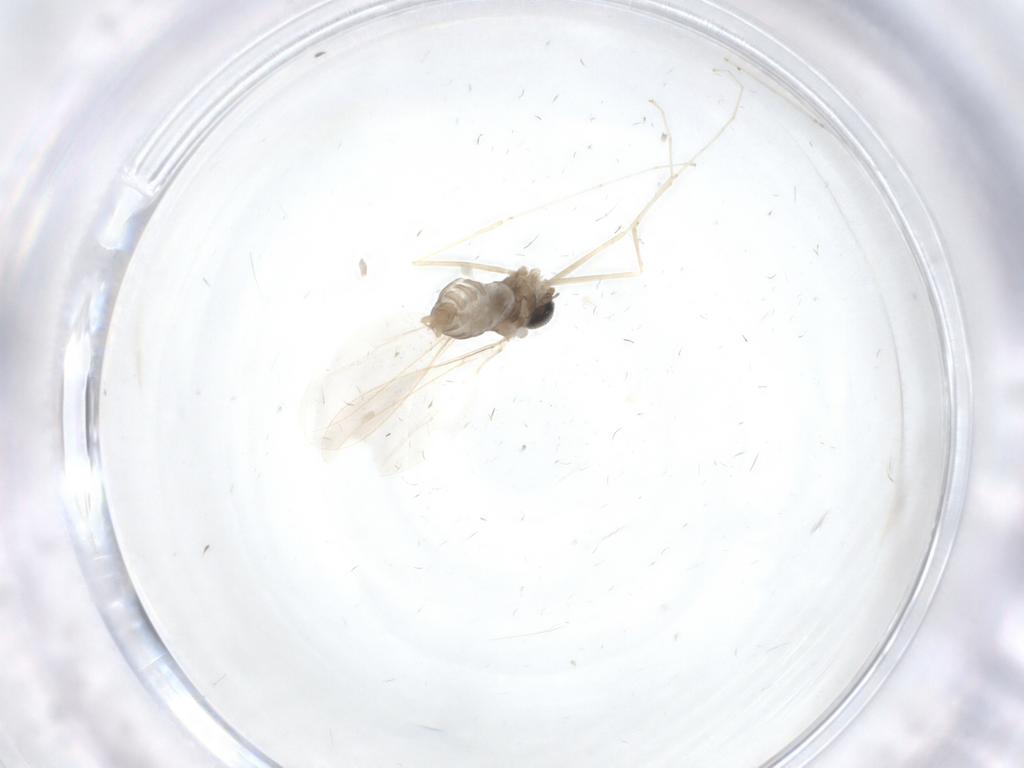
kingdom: Animalia
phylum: Arthropoda
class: Insecta
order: Diptera
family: Cecidomyiidae
